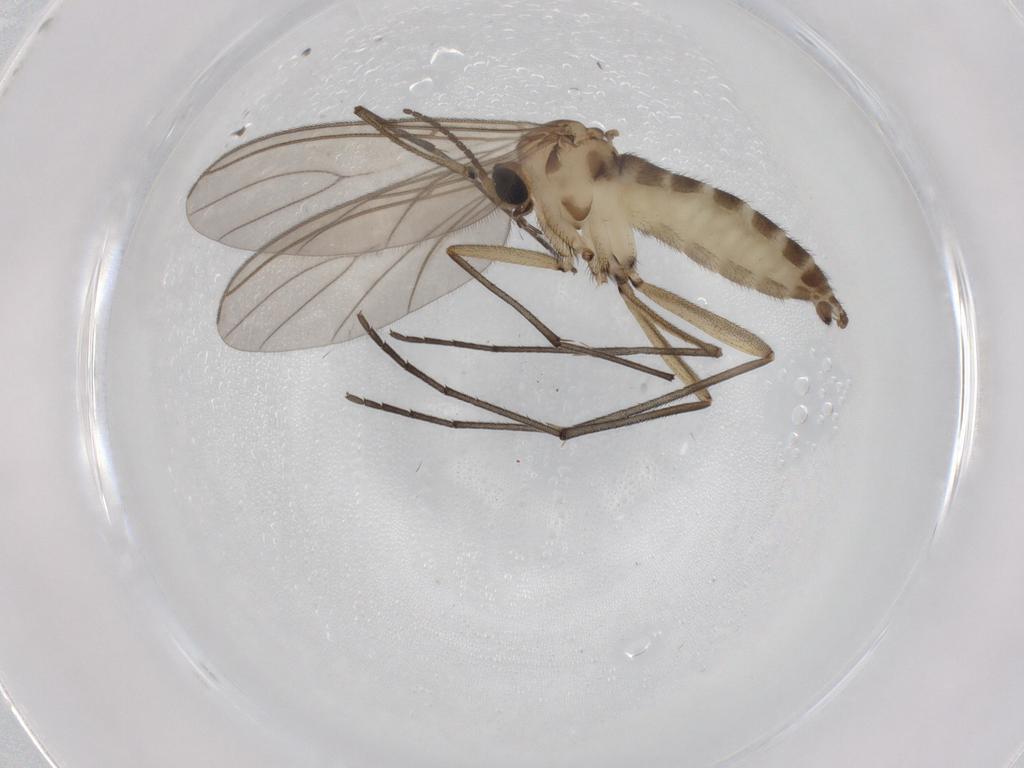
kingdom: Animalia
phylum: Arthropoda
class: Insecta
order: Diptera
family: Sciaridae
